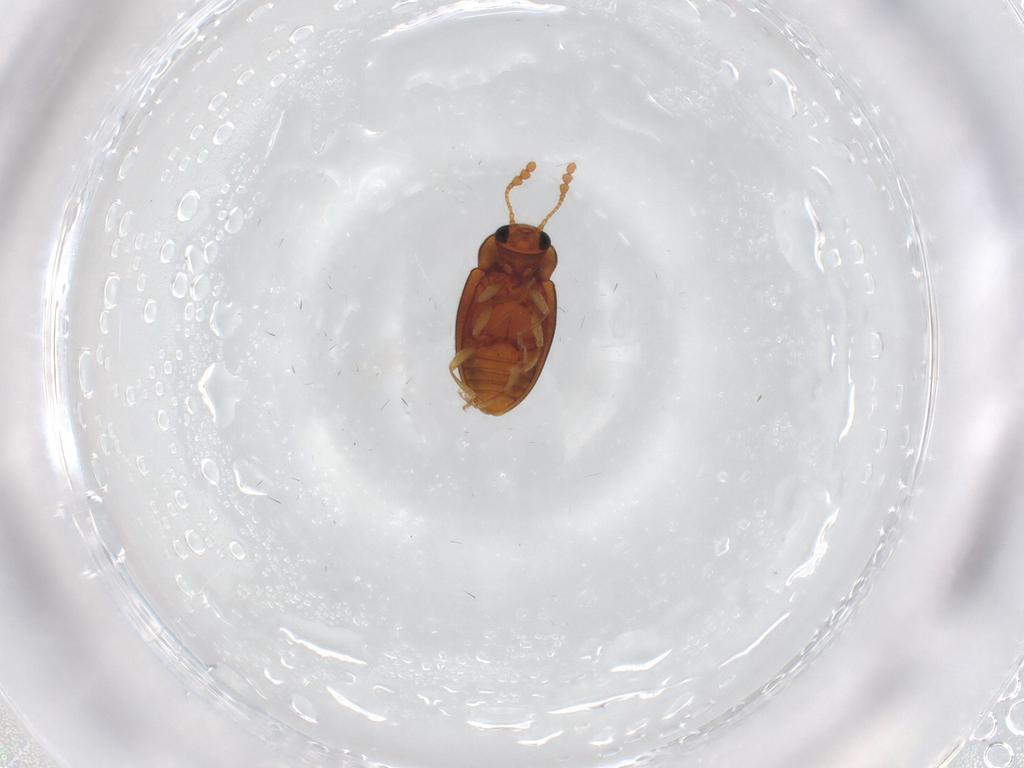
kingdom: Animalia
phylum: Arthropoda
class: Insecta
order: Coleoptera
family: Erotylidae
